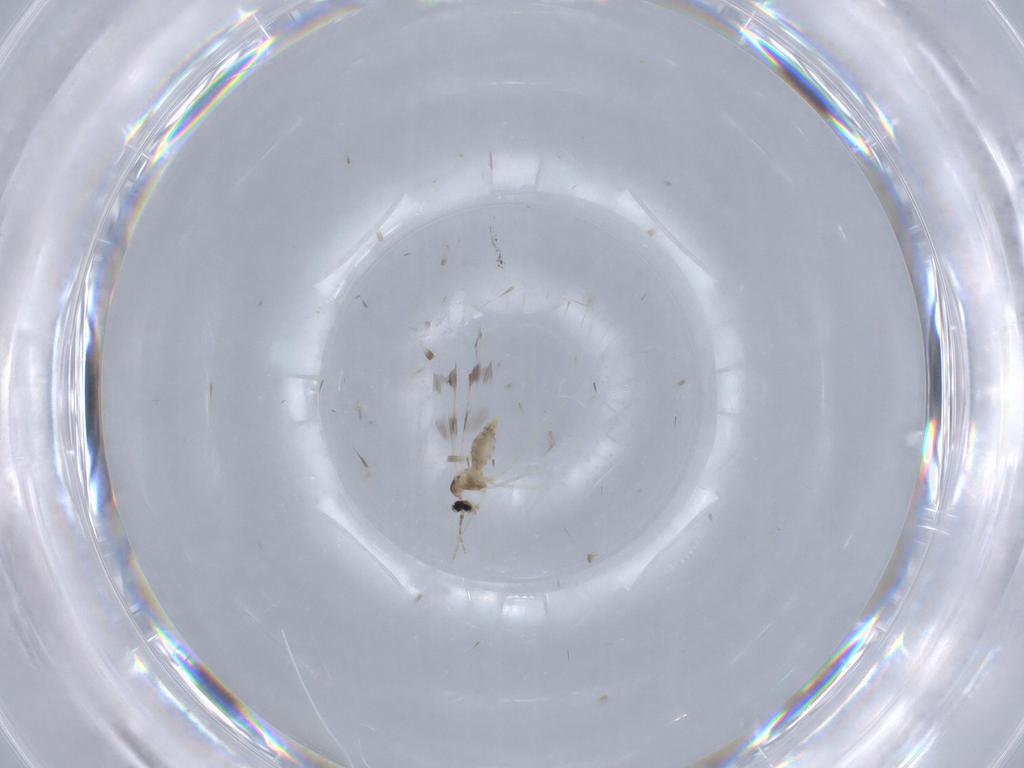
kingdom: Animalia
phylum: Arthropoda
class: Insecta
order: Diptera
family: Cecidomyiidae
